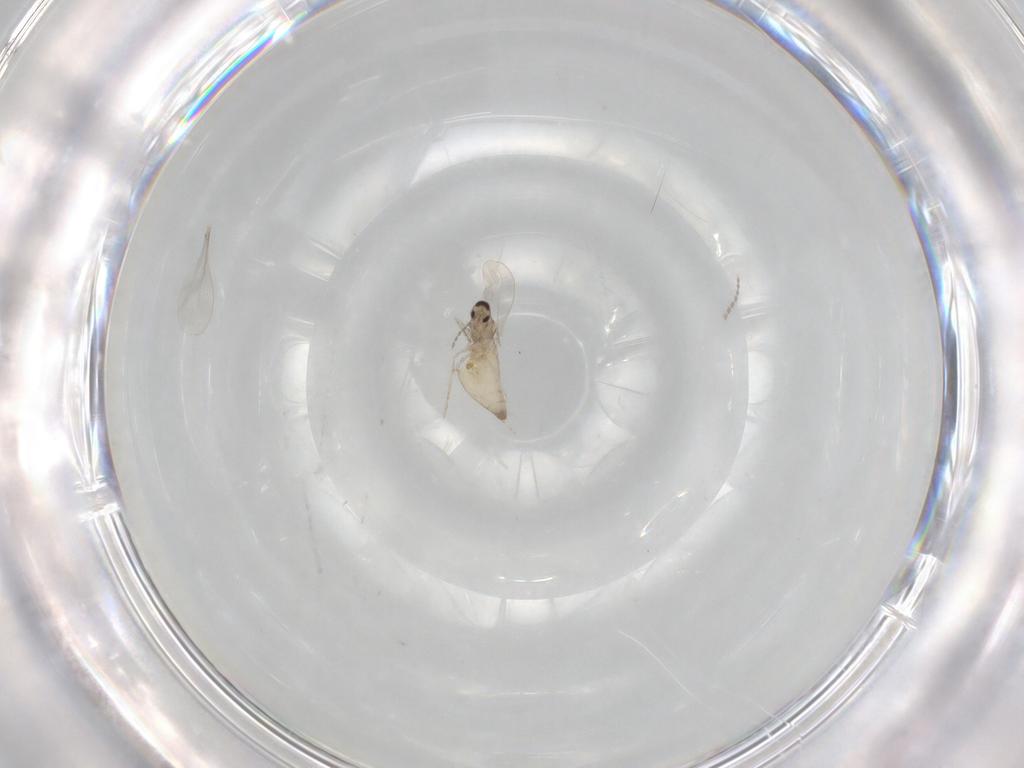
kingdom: Animalia
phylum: Arthropoda
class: Insecta
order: Diptera
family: Cecidomyiidae
